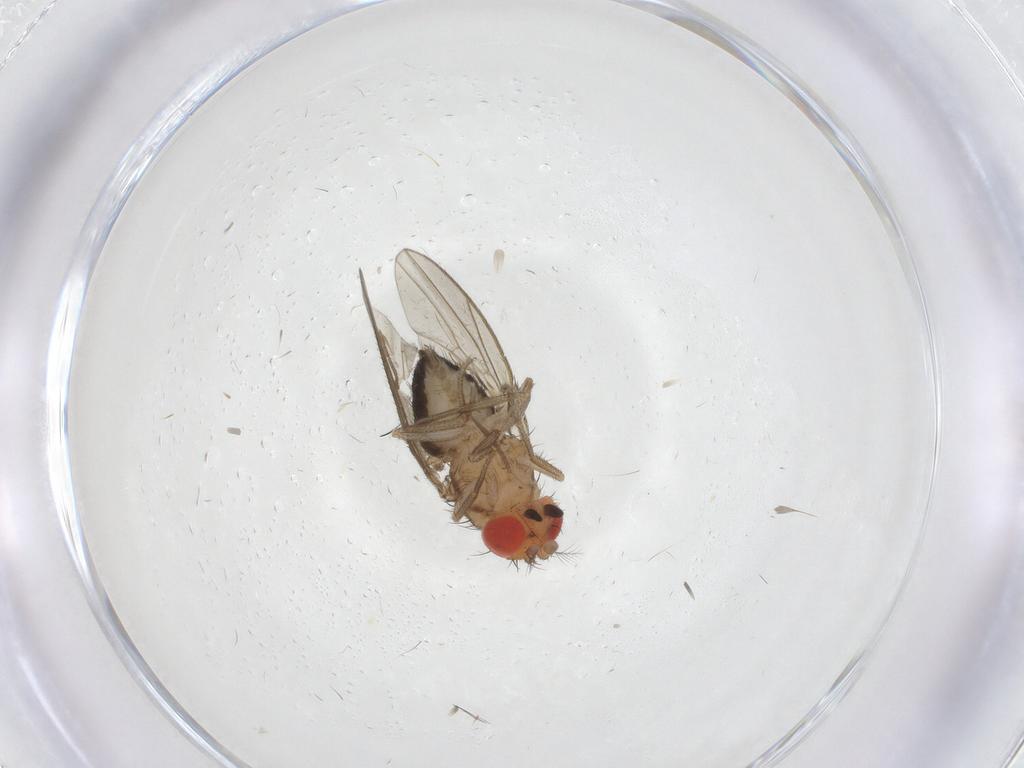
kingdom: Animalia
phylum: Arthropoda
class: Insecta
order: Diptera
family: Drosophilidae
